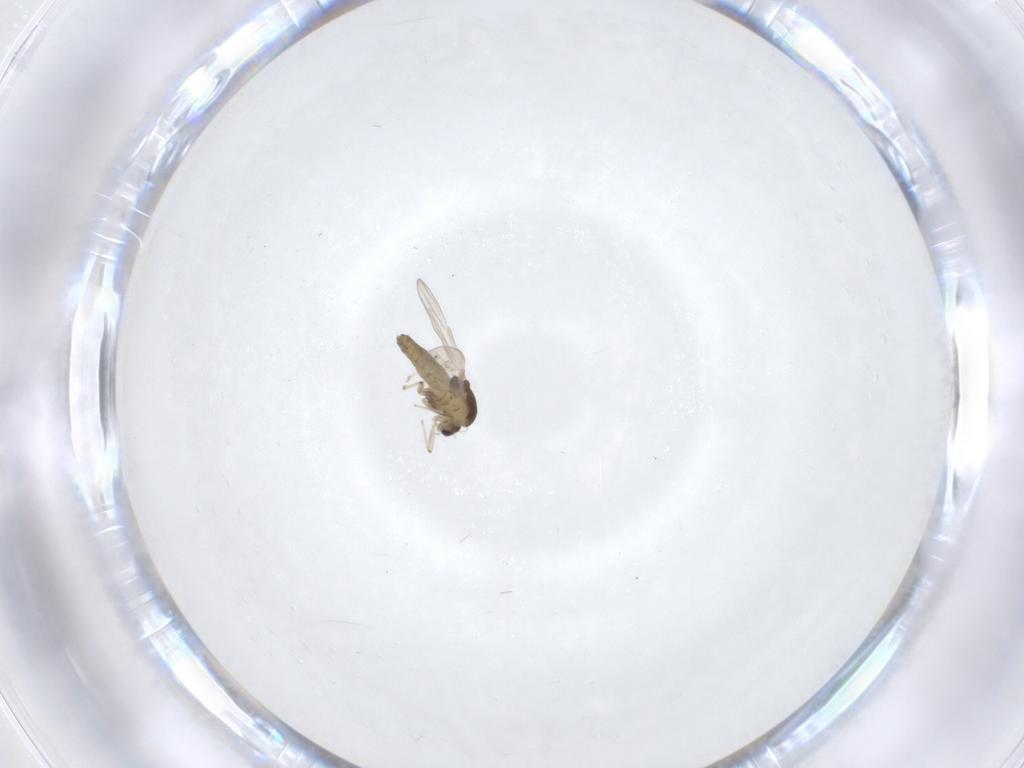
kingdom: Animalia
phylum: Arthropoda
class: Insecta
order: Diptera
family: Chironomidae
